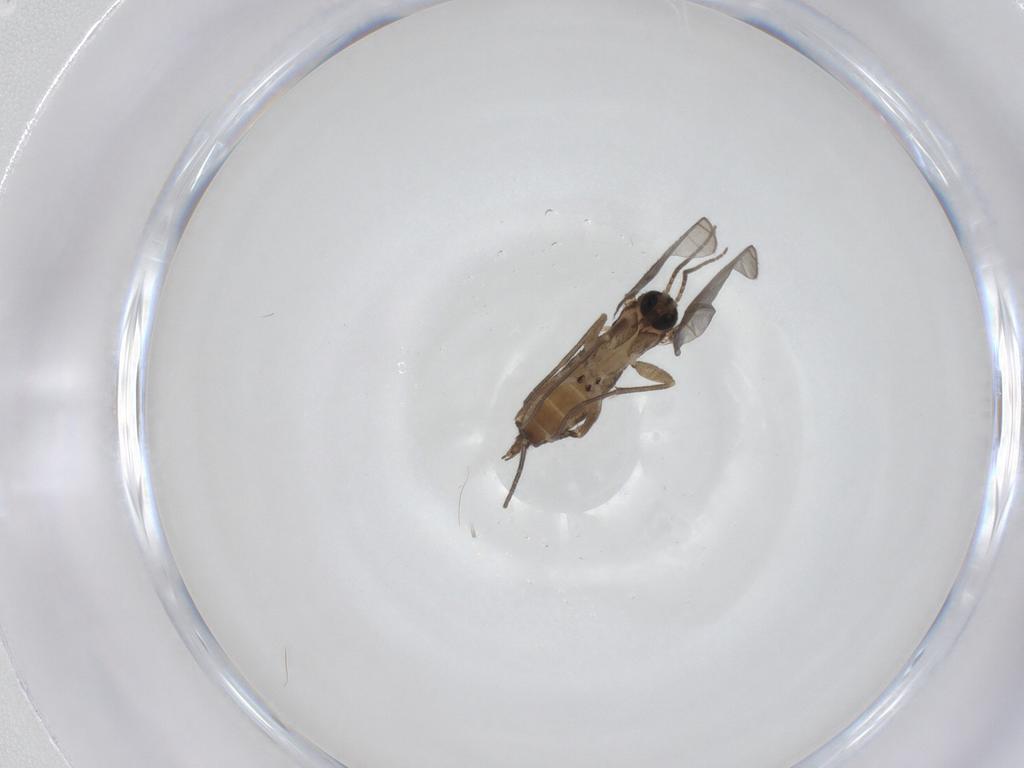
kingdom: Animalia
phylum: Arthropoda
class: Insecta
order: Diptera
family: Sciaridae
